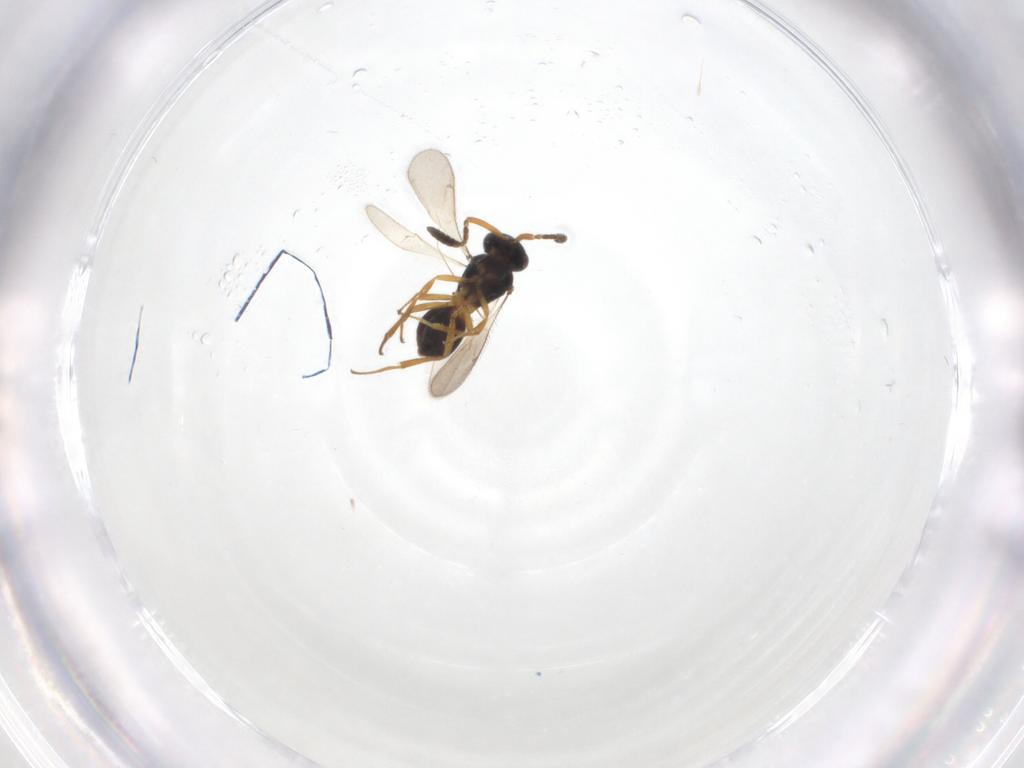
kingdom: Animalia
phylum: Arthropoda
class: Insecta
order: Hymenoptera
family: Scelionidae
